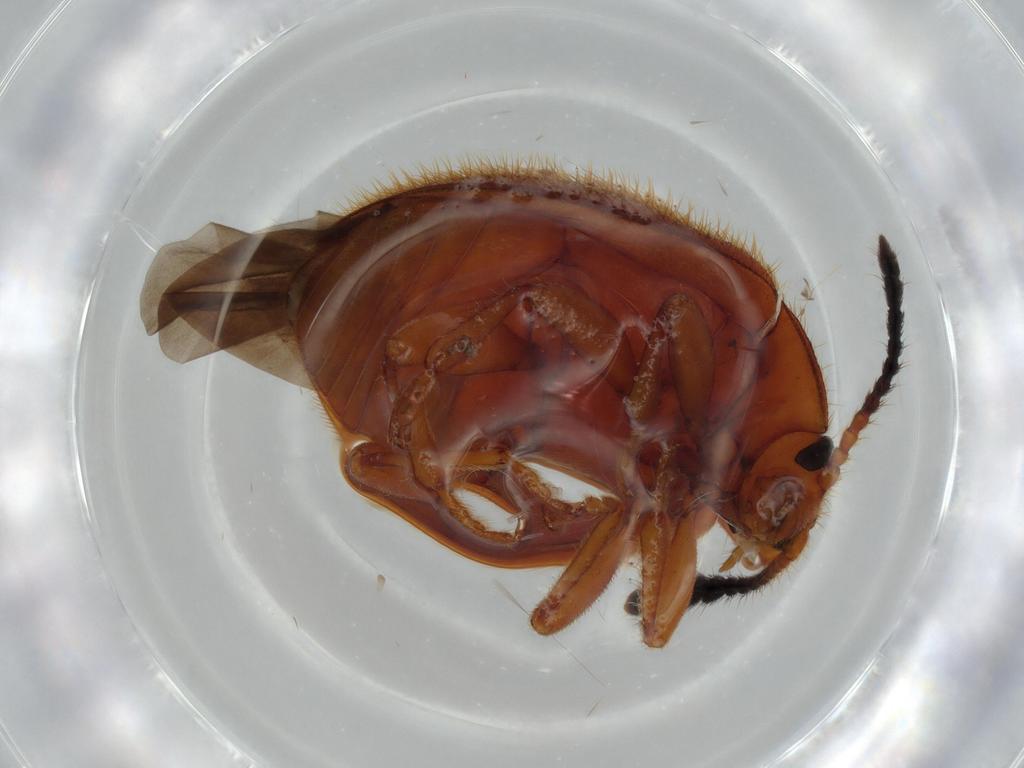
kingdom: Animalia
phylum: Arthropoda
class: Insecta
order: Coleoptera
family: Endomychidae
